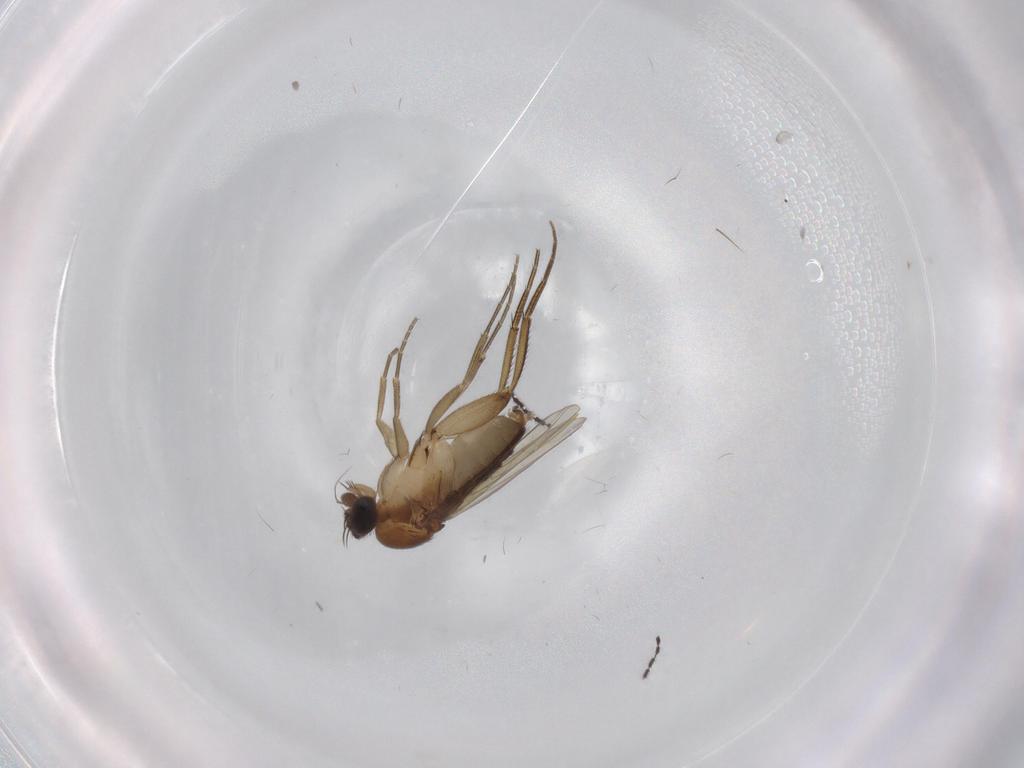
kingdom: Animalia
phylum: Arthropoda
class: Insecta
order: Diptera
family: Phoridae
